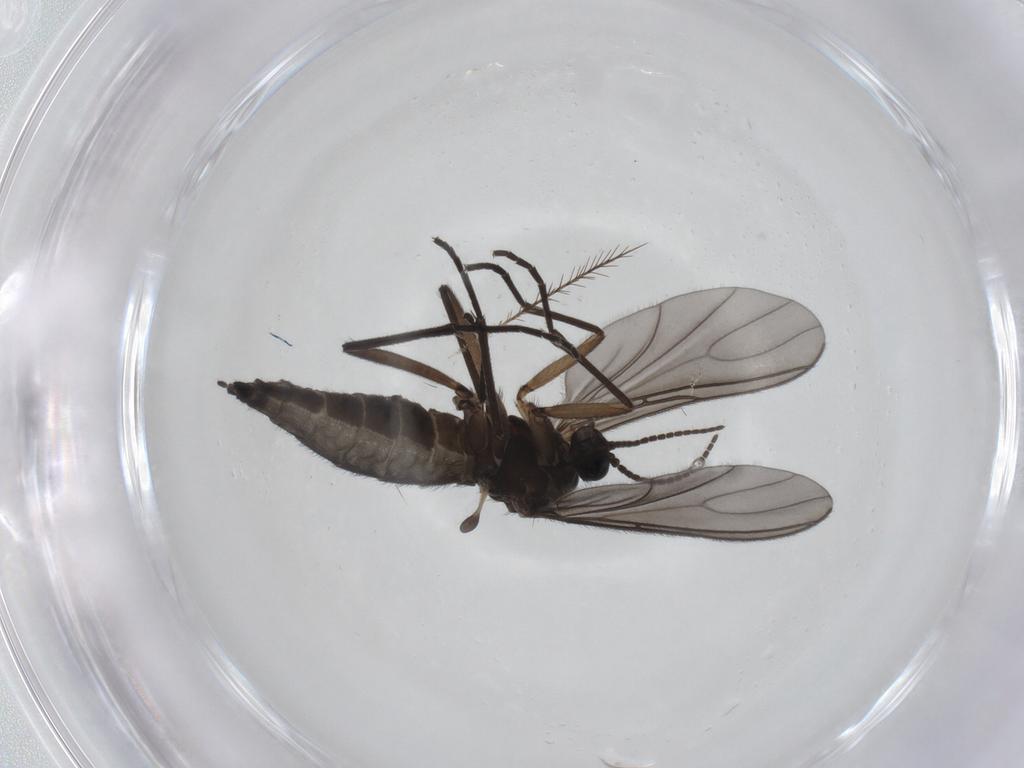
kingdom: Animalia
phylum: Arthropoda
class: Insecta
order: Diptera
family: Sciaridae
